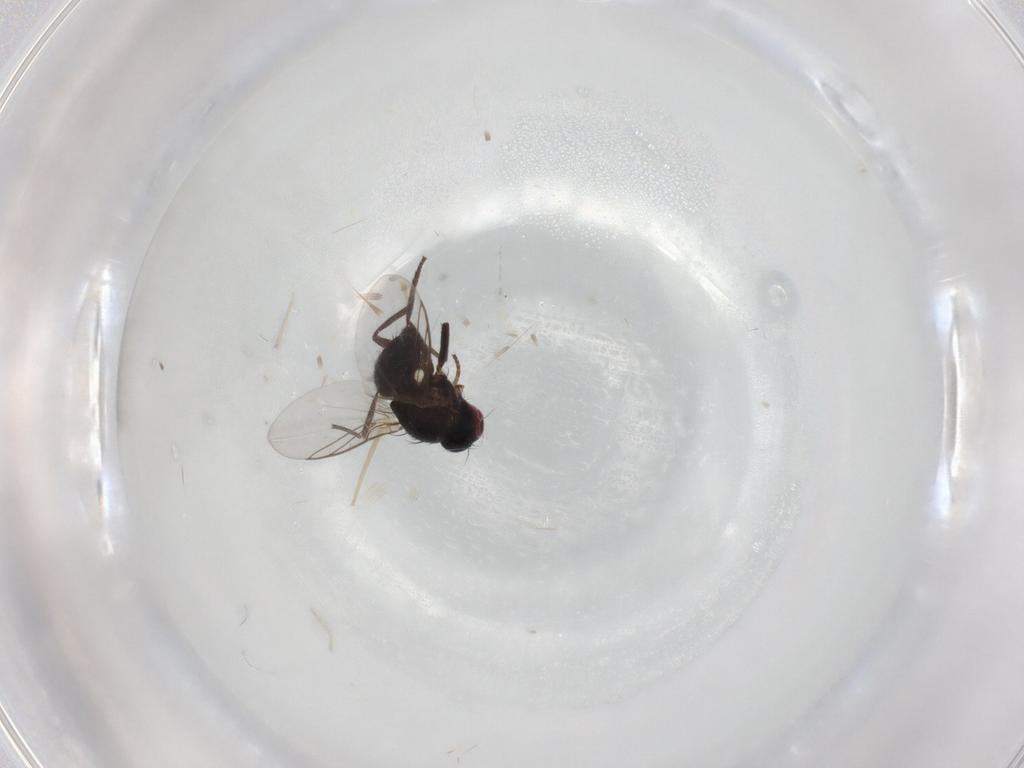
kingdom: Animalia
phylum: Arthropoda
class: Insecta
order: Diptera
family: Agromyzidae
